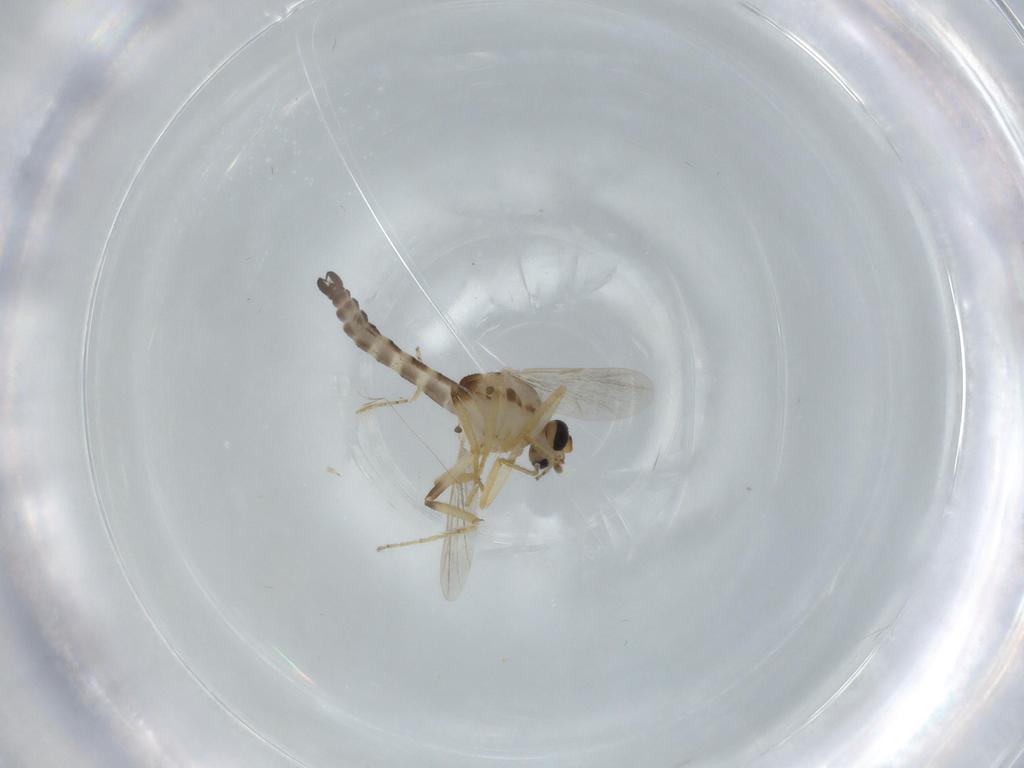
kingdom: Animalia
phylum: Arthropoda
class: Insecta
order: Diptera
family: Ceratopogonidae
